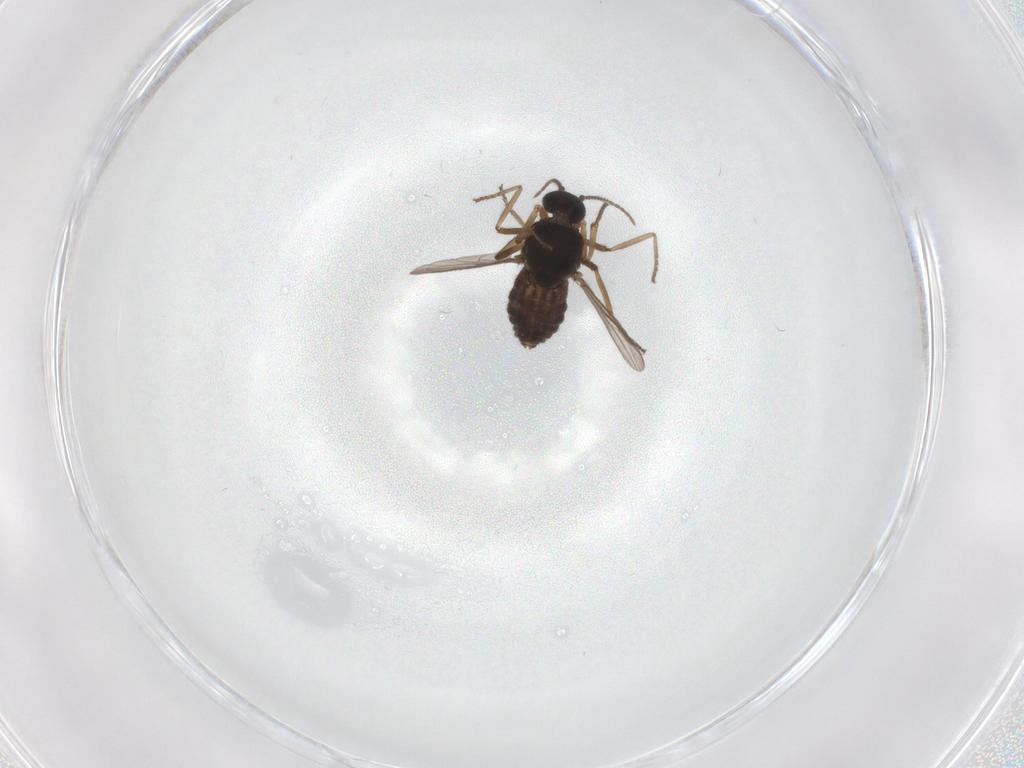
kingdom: Animalia
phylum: Arthropoda
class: Insecta
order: Diptera
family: Ceratopogonidae
